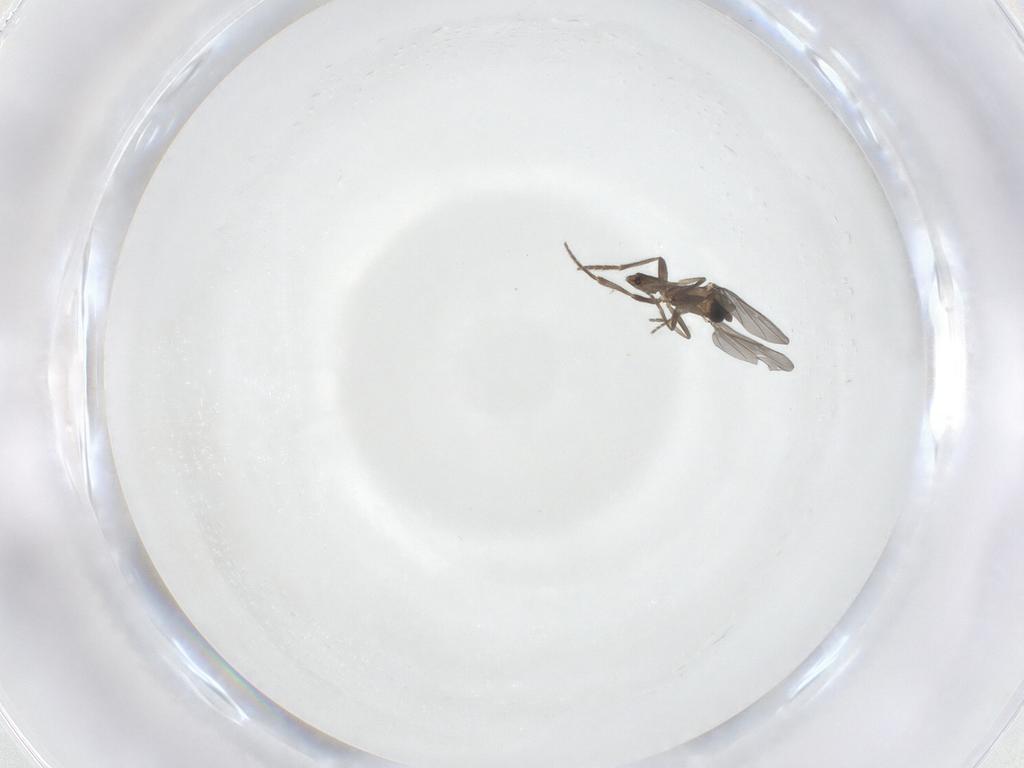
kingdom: Animalia
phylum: Arthropoda
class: Insecta
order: Diptera
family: Phoridae
